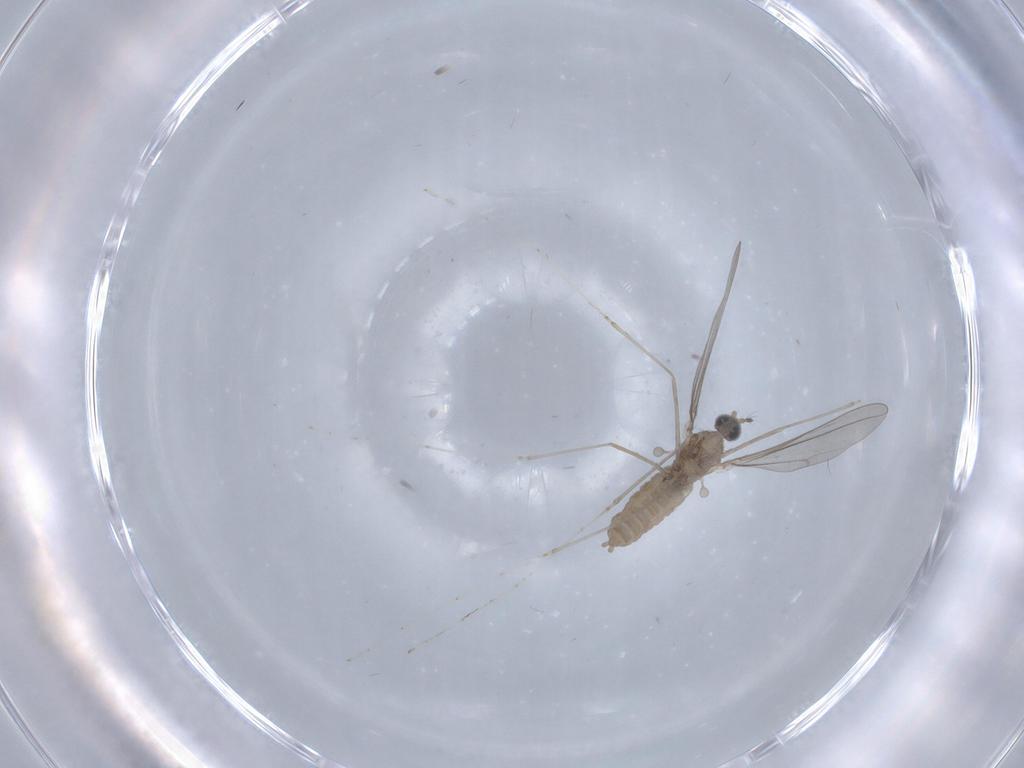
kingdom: Animalia
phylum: Arthropoda
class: Insecta
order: Diptera
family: Cecidomyiidae
